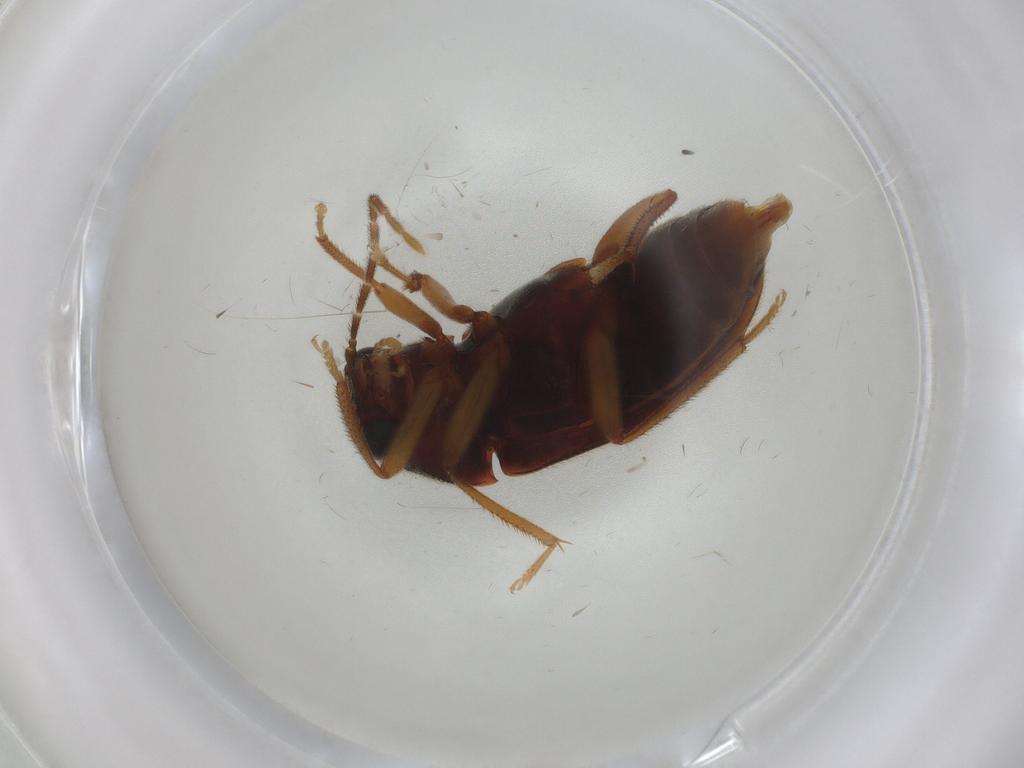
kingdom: Animalia
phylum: Arthropoda
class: Insecta
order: Coleoptera
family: Ptilodactylidae
